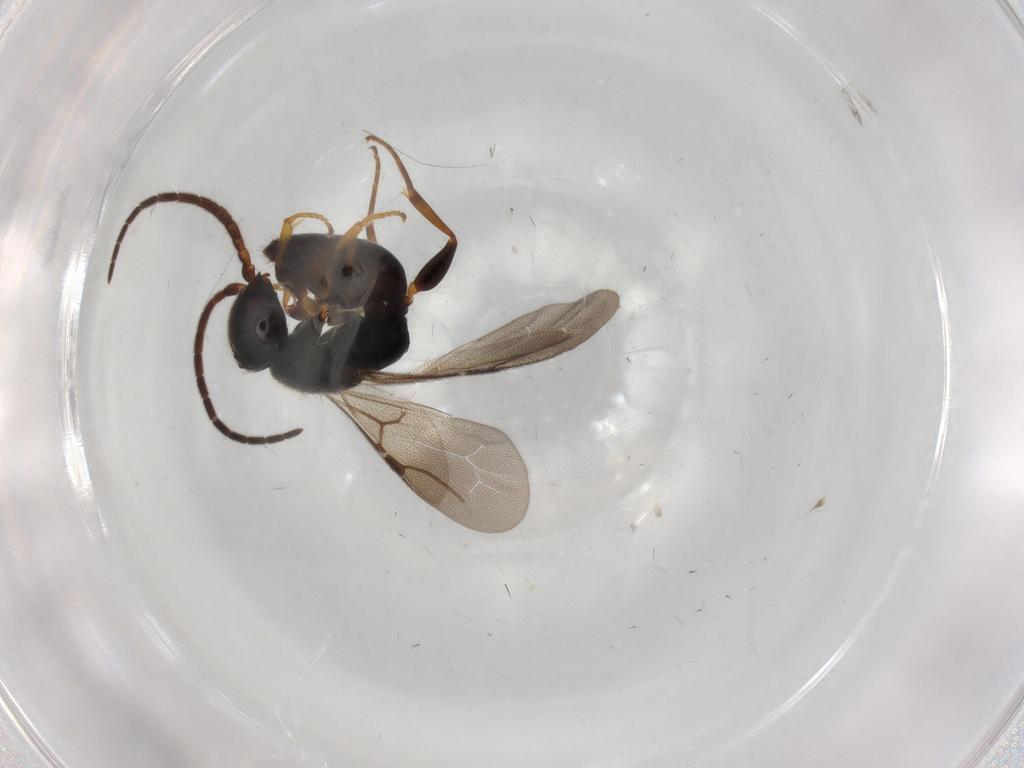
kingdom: Animalia
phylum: Arthropoda
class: Insecta
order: Hymenoptera
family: Bethylidae
